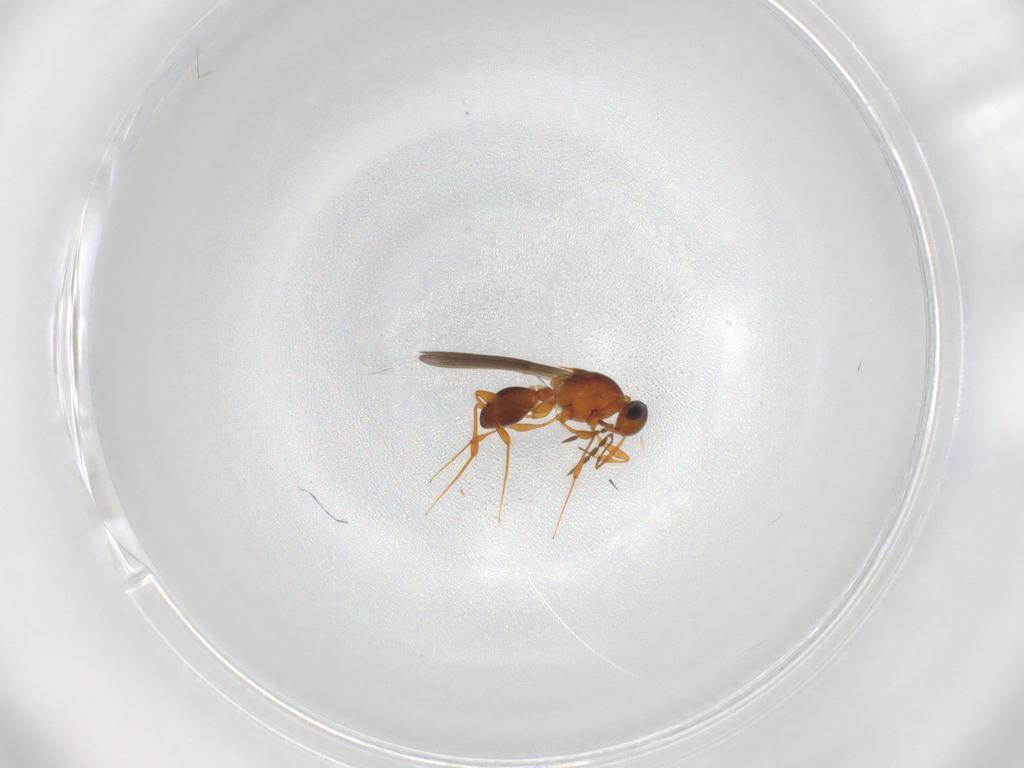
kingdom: Animalia
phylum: Arthropoda
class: Insecta
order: Hymenoptera
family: Platygastridae
